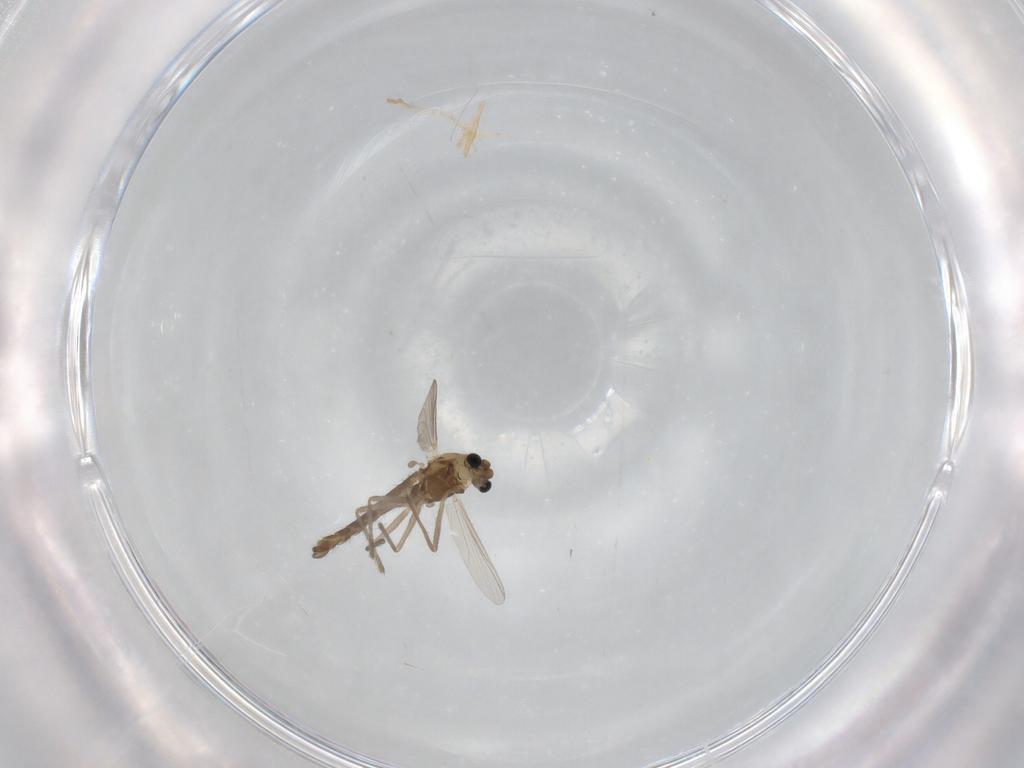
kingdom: Animalia
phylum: Arthropoda
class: Insecta
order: Diptera
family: Chironomidae
